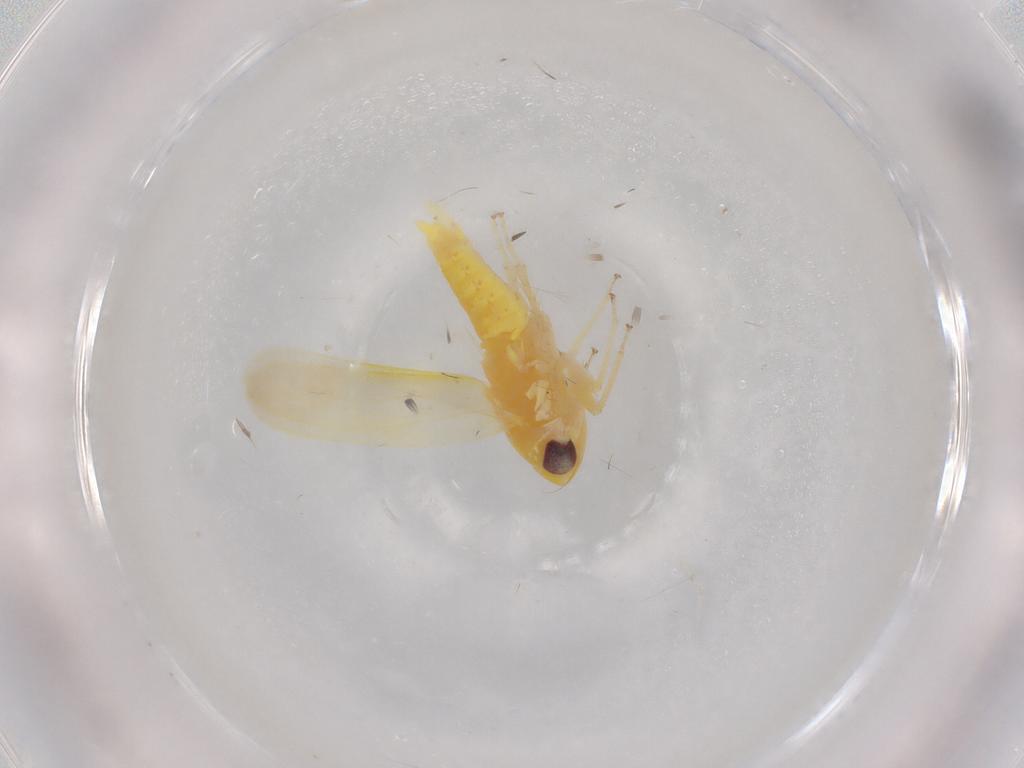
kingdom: Animalia
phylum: Arthropoda
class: Insecta
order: Hemiptera
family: Cicadellidae
